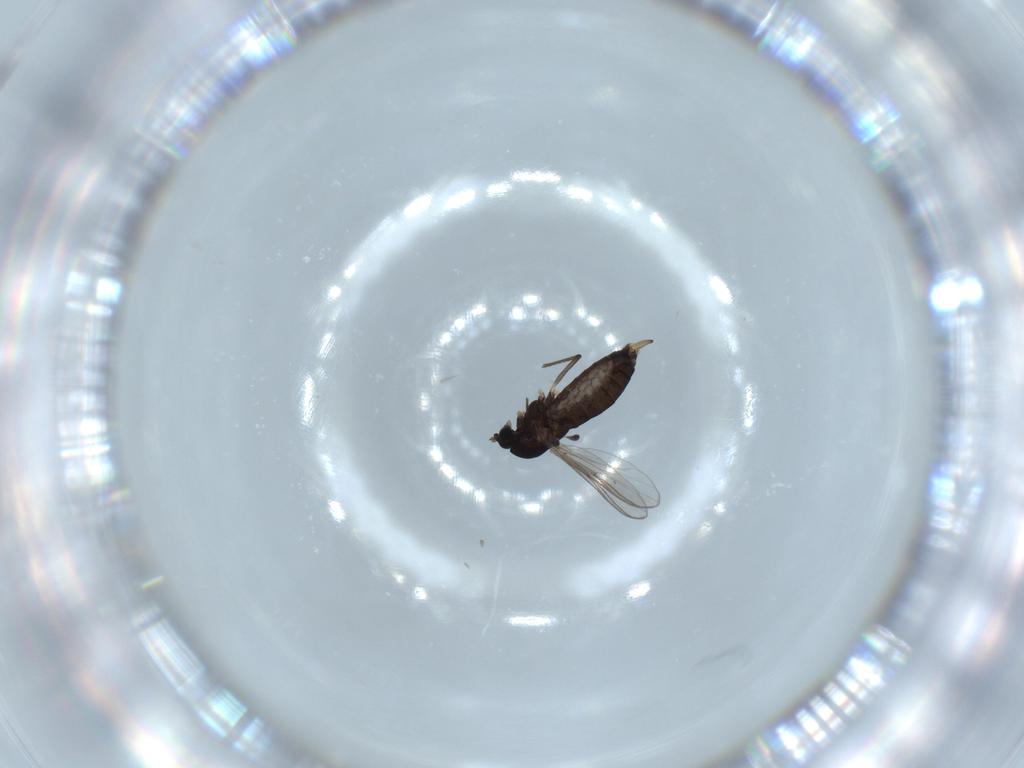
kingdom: Animalia
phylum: Arthropoda
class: Insecta
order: Diptera
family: Chironomidae
